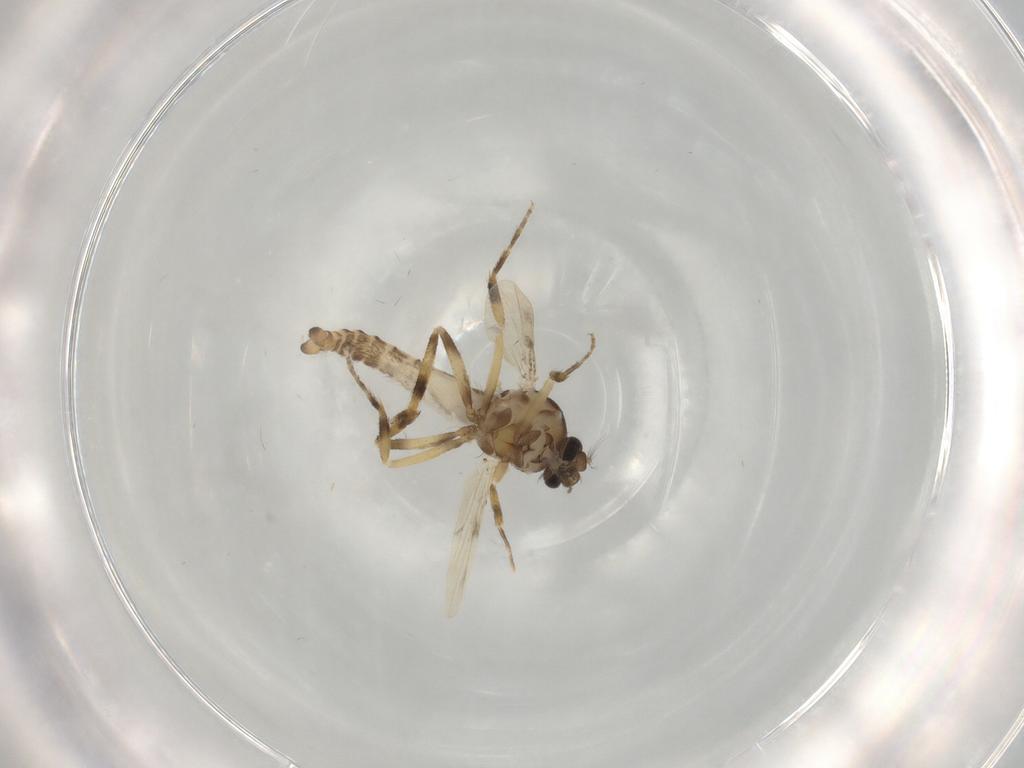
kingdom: Animalia
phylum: Arthropoda
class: Insecta
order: Diptera
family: Ceratopogonidae
